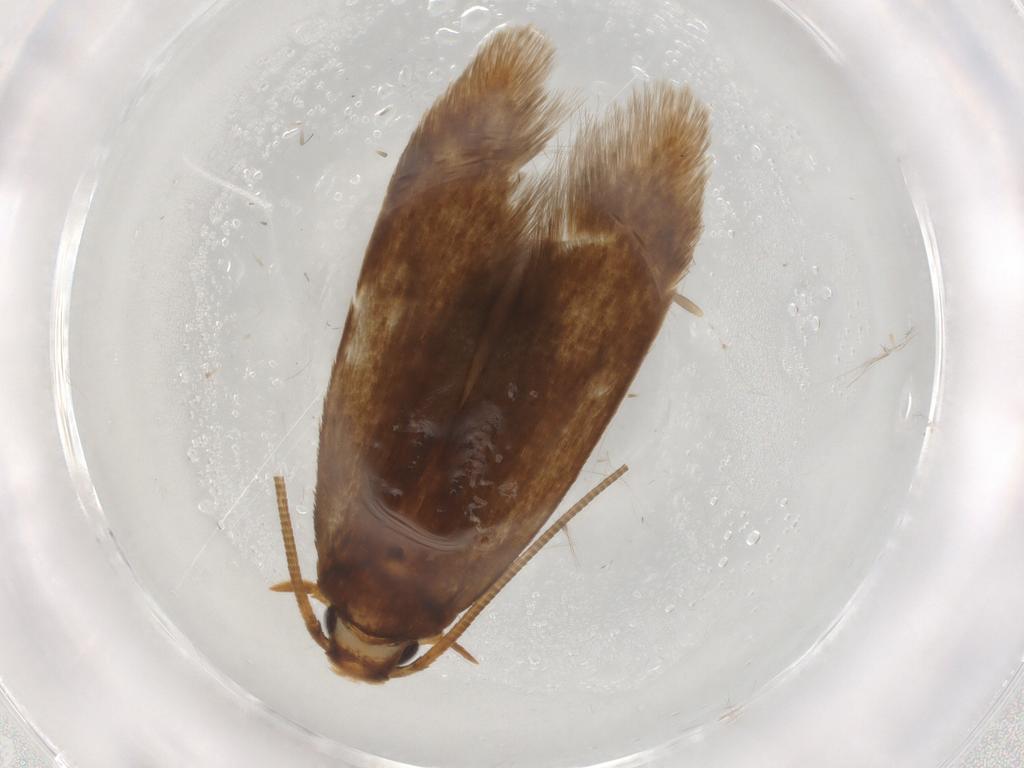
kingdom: Animalia
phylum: Arthropoda
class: Insecta
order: Lepidoptera
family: Tineidae
